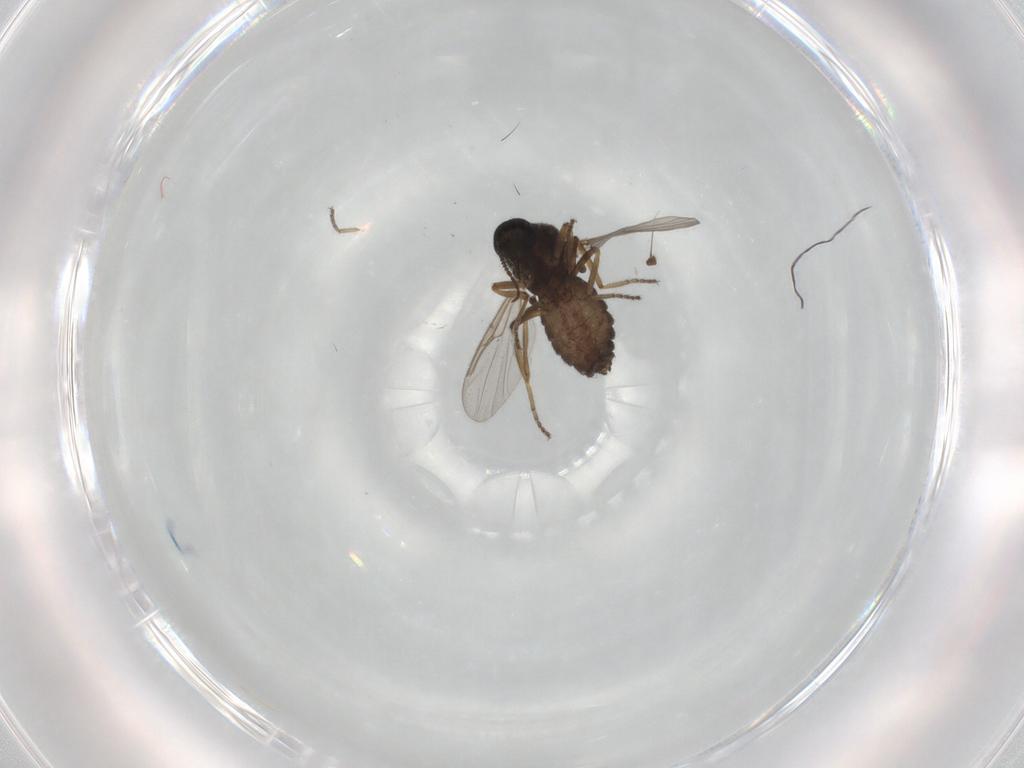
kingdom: Animalia
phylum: Arthropoda
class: Insecta
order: Diptera
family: Ceratopogonidae
